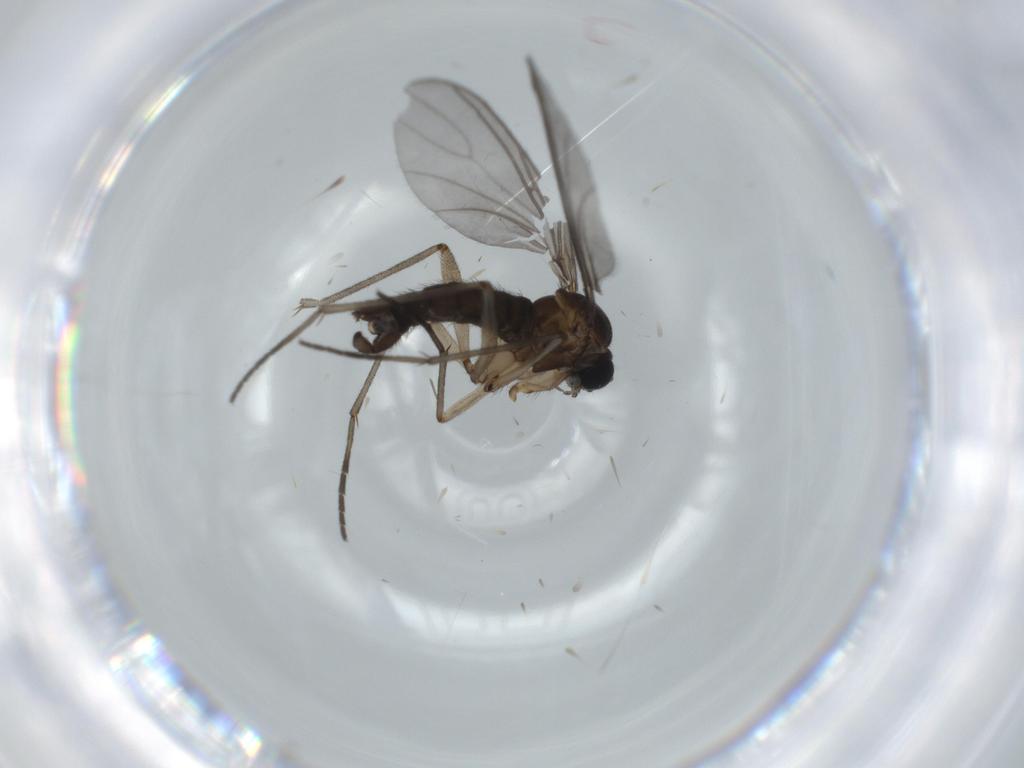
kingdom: Animalia
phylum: Arthropoda
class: Insecta
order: Diptera
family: Sciaridae
